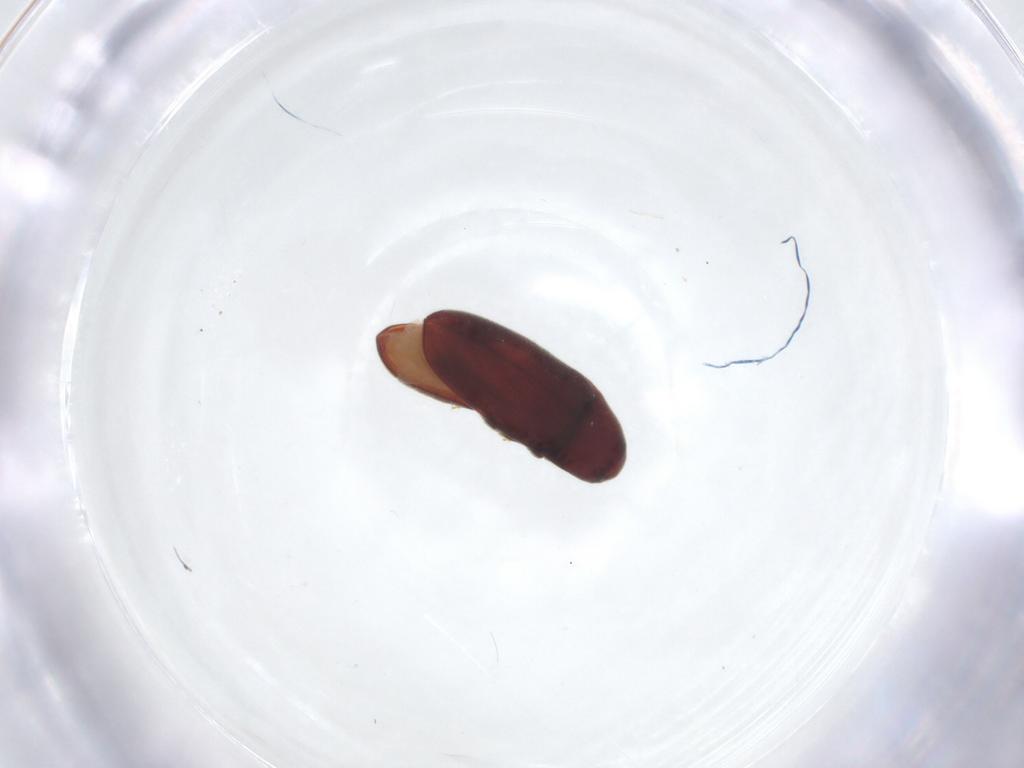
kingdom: Animalia
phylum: Arthropoda
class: Insecta
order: Coleoptera
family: Throscidae
